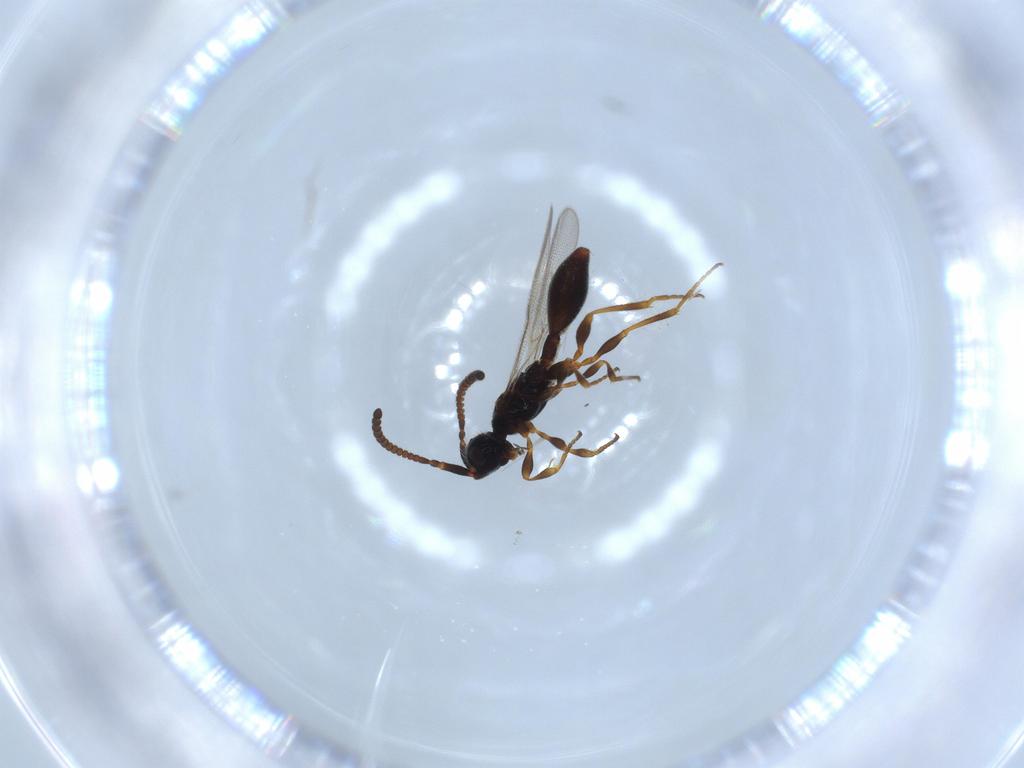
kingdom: Animalia
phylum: Arthropoda
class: Insecta
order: Hymenoptera
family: Diapriidae
